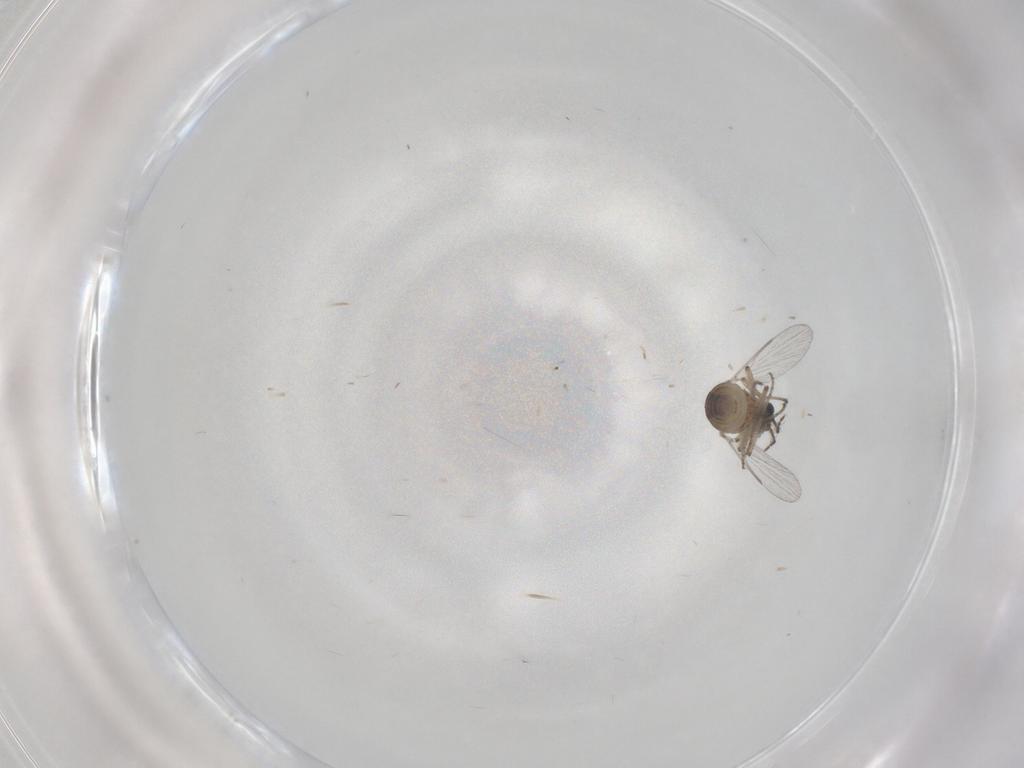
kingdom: Animalia
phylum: Arthropoda
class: Insecta
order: Diptera
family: Ceratopogonidae
